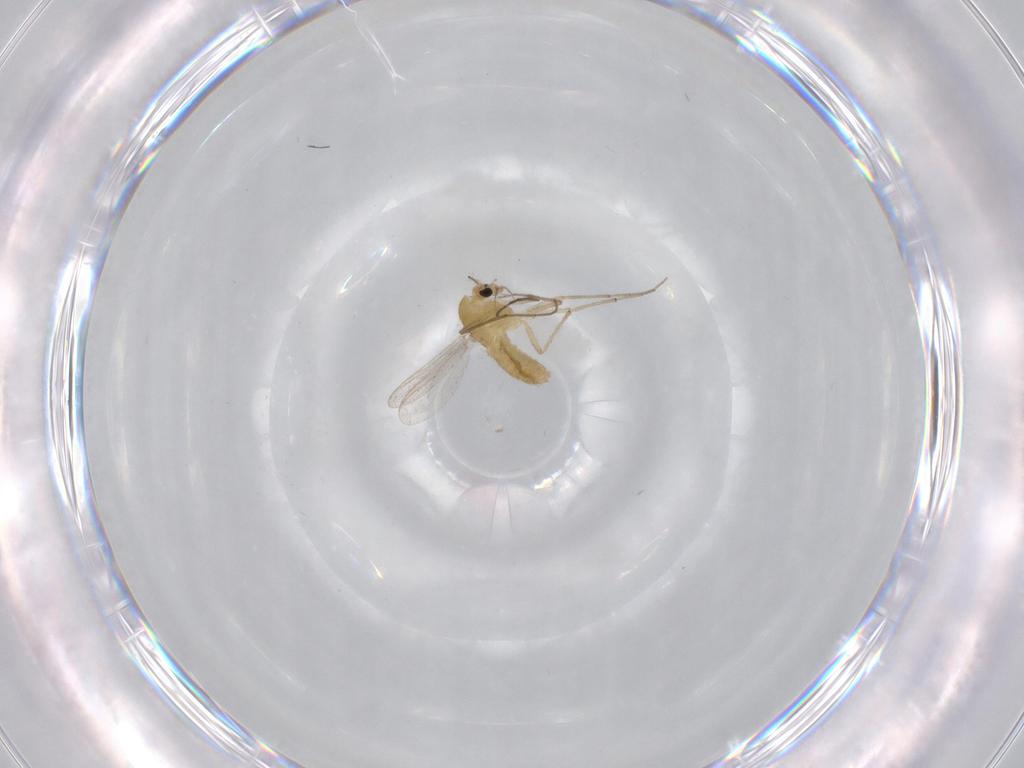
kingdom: Animalia
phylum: Arthropoda
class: Insecta
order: Diptera
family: Chironomidae
